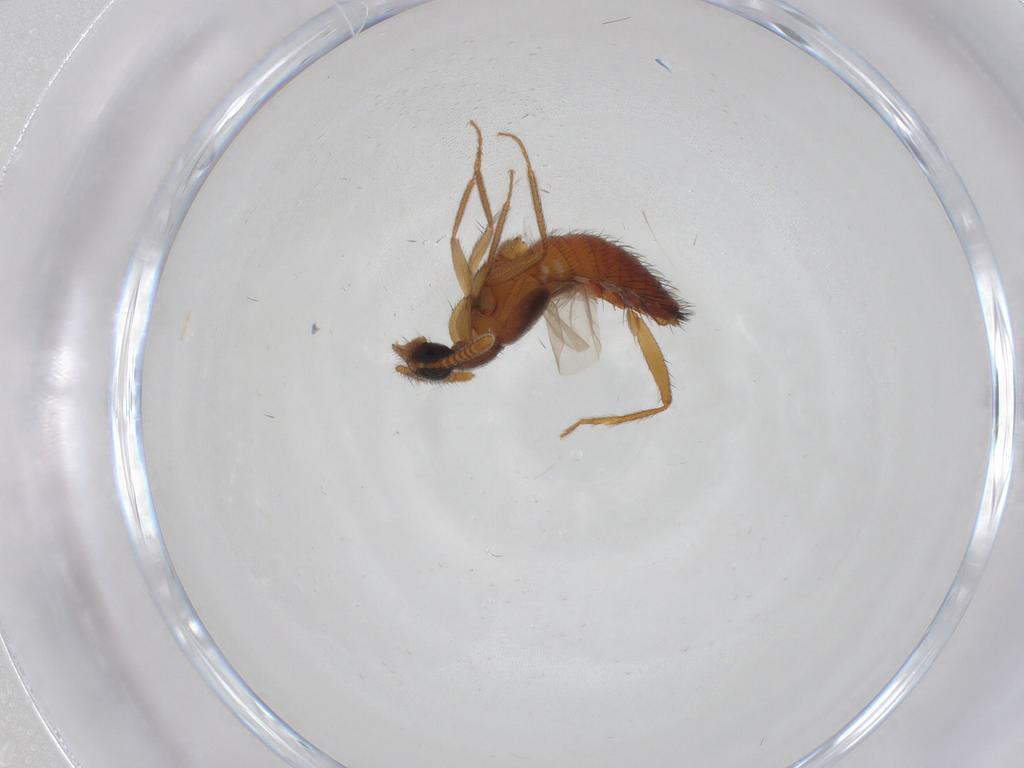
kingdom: Animalia
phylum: Arthropoda
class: Insecta
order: Coleoptera
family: Staphylinidae
